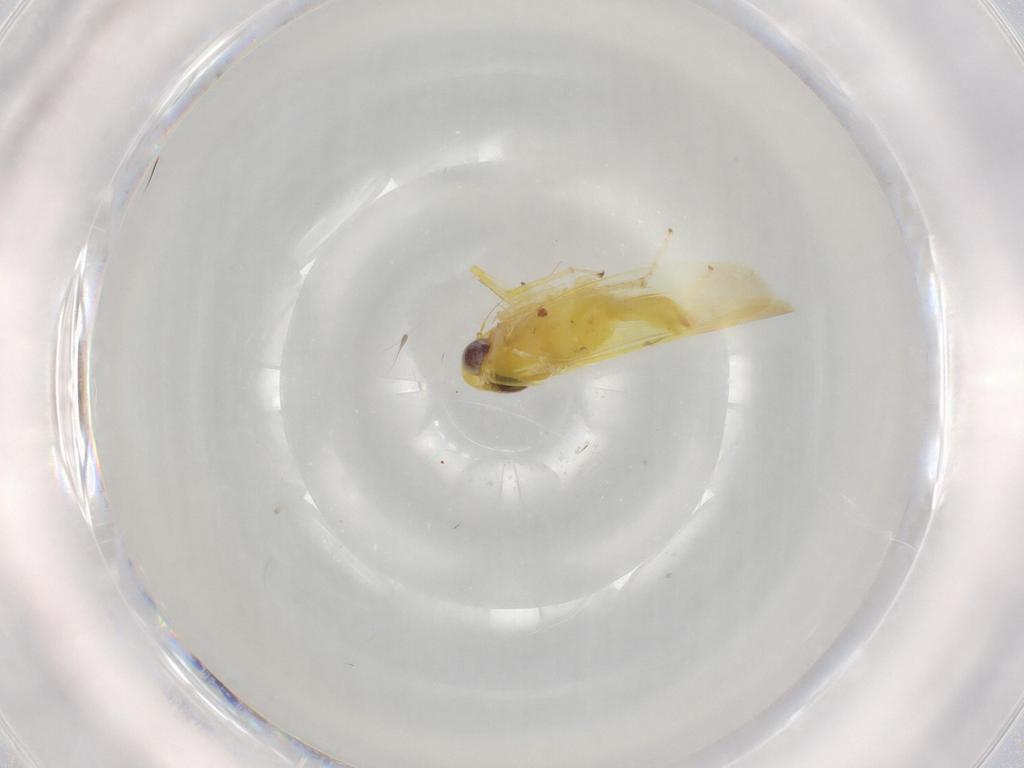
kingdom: Animalia
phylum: Arthropoda
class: Insecta
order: Hemiptera
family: Cicadellidae
